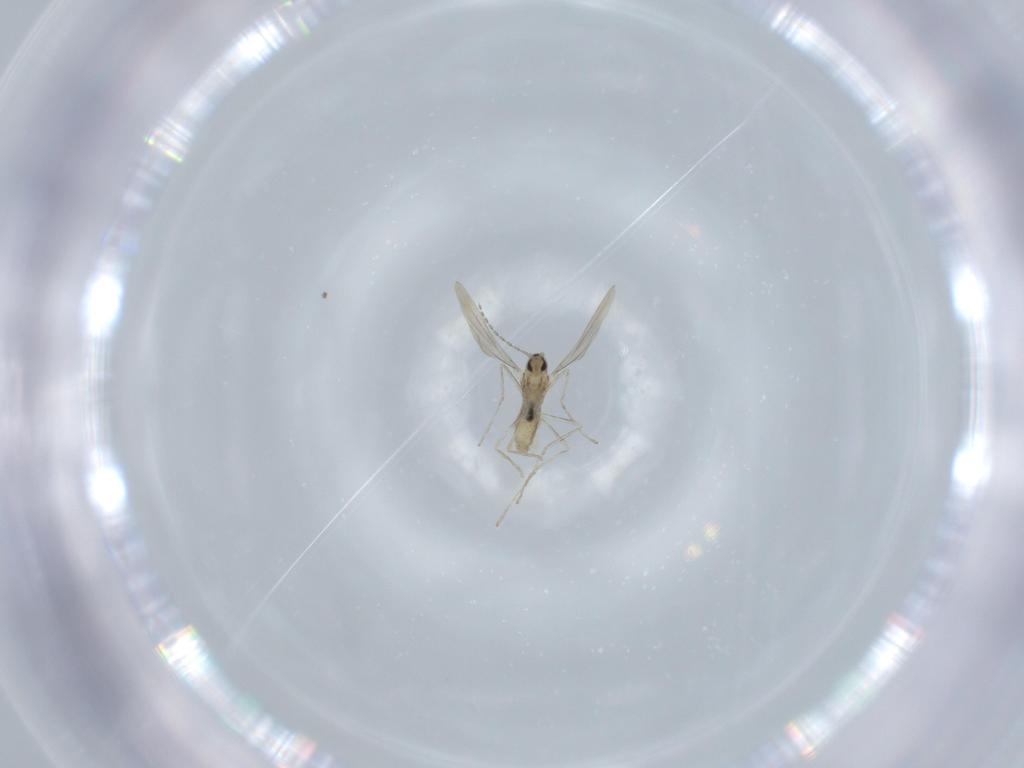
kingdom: Animalia
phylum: Arthropoda
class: Insecta
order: Diptera
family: Cecidomyiidae
